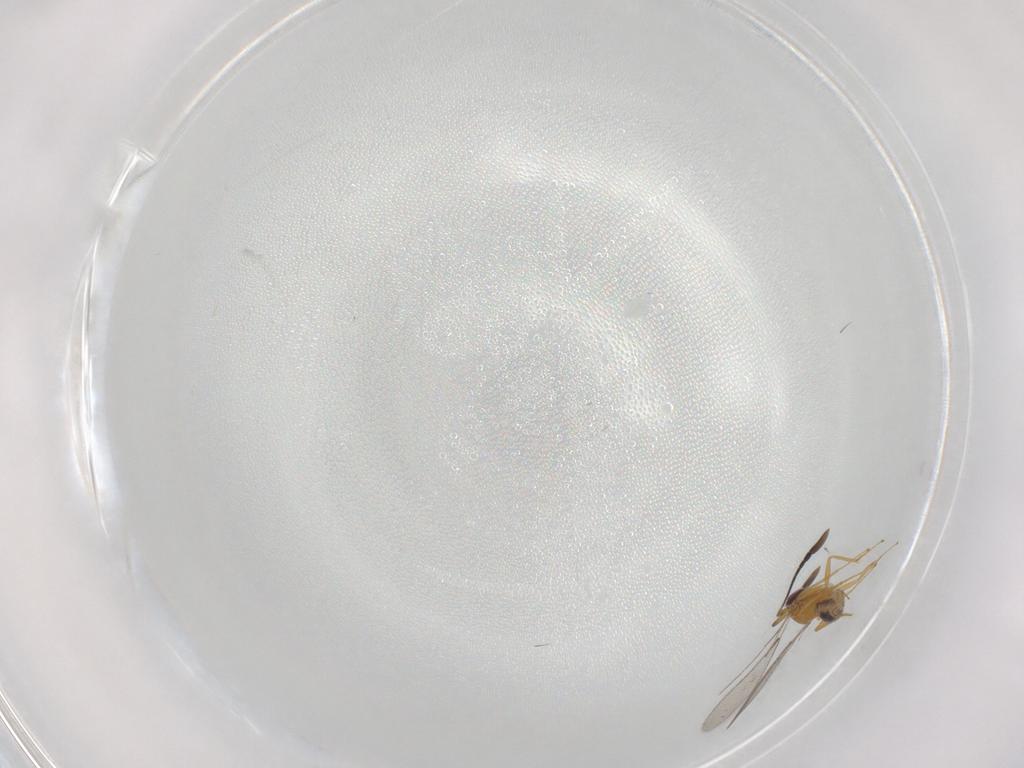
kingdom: Animalia
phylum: Arthropoda
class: Insecta
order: Hymenoptera
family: Mymaridae
